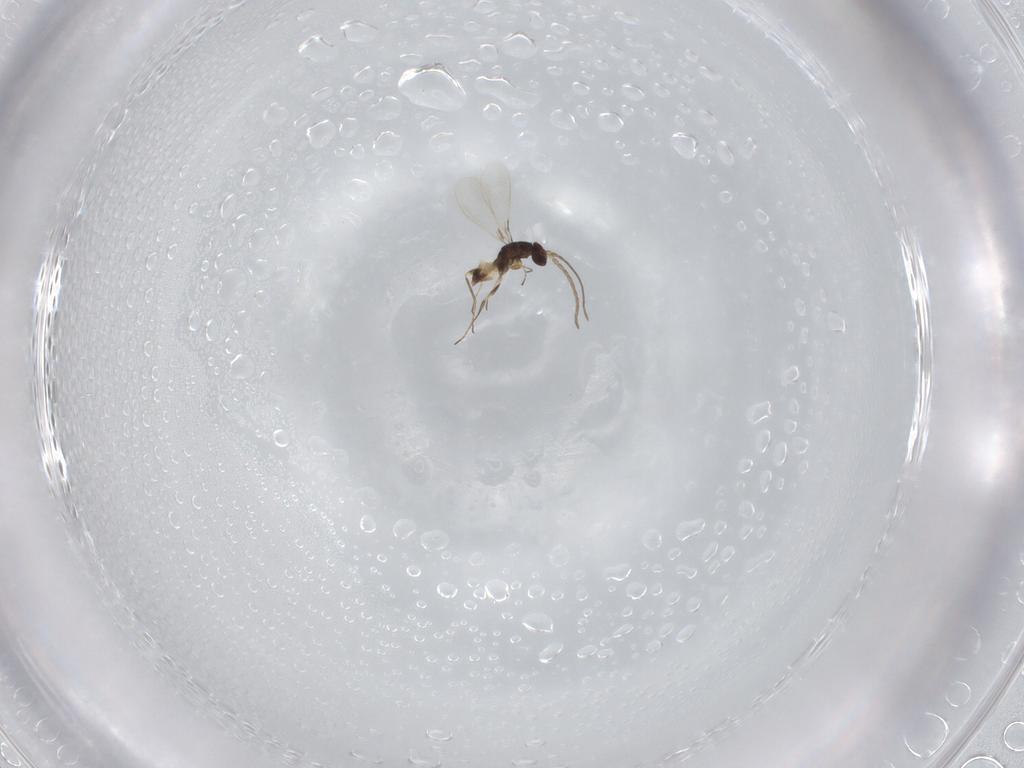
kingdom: Animalia
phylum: Arthropoda
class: Insecta
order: Hymenoptera
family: Mymaridae
